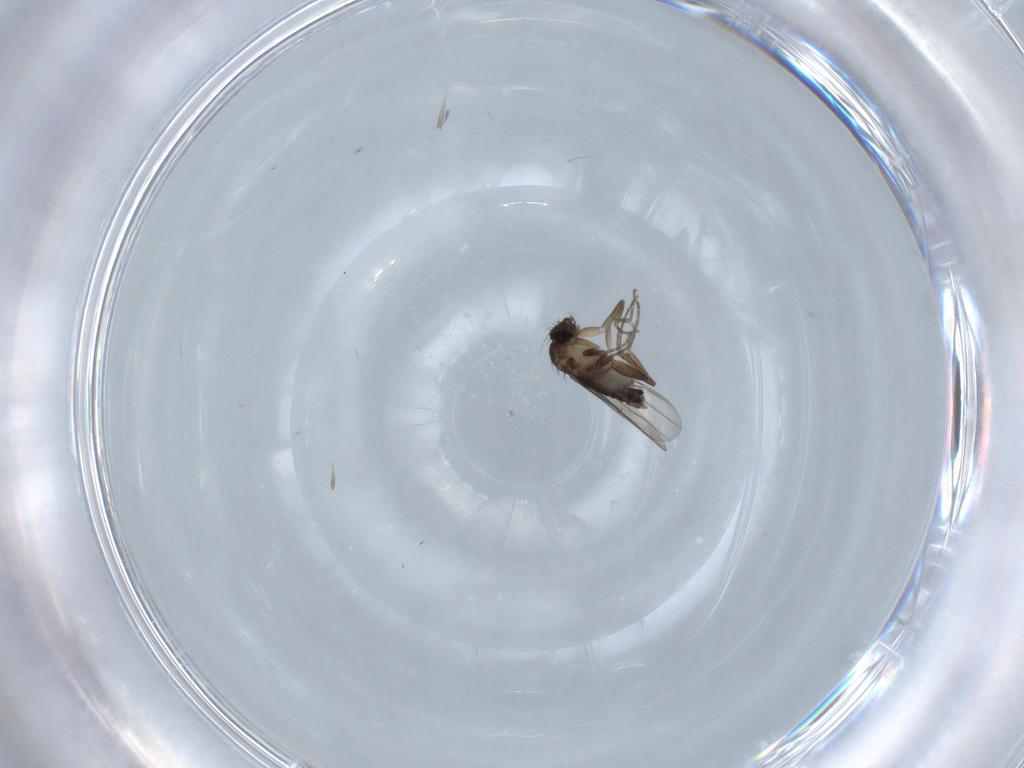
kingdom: Animalia
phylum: Arthropoda
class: Insecta
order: Diptera
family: Phoridae
